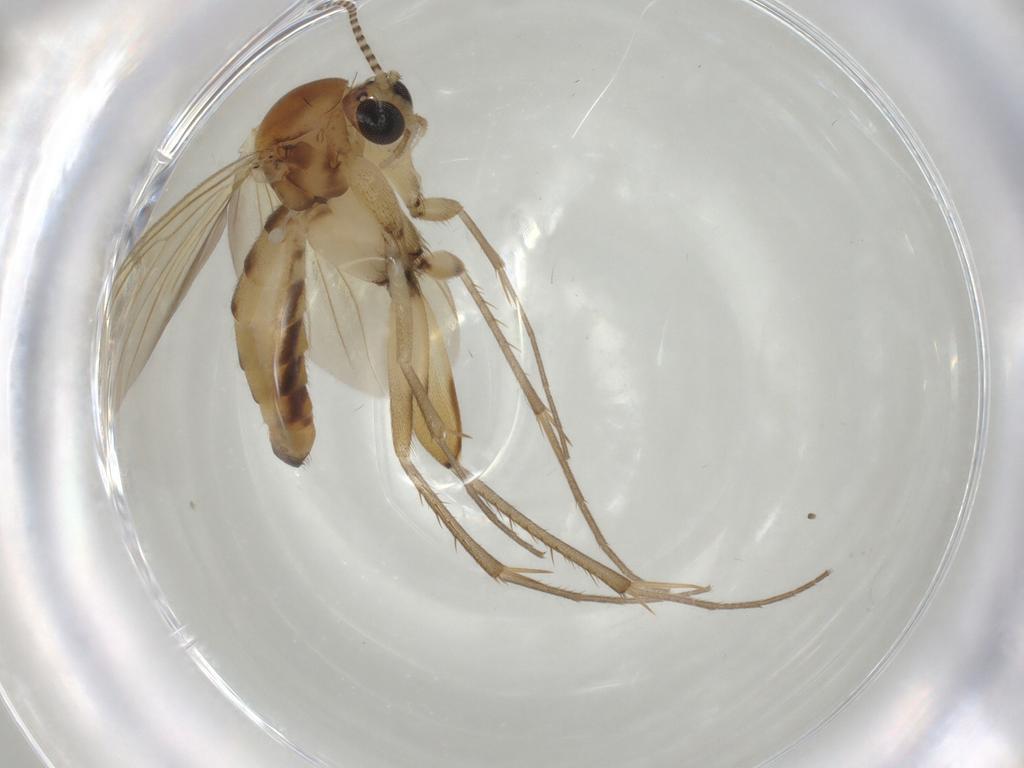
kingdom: Animalia
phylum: Arthropoda
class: Insecta
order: Diptera
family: Mycetophilidae
